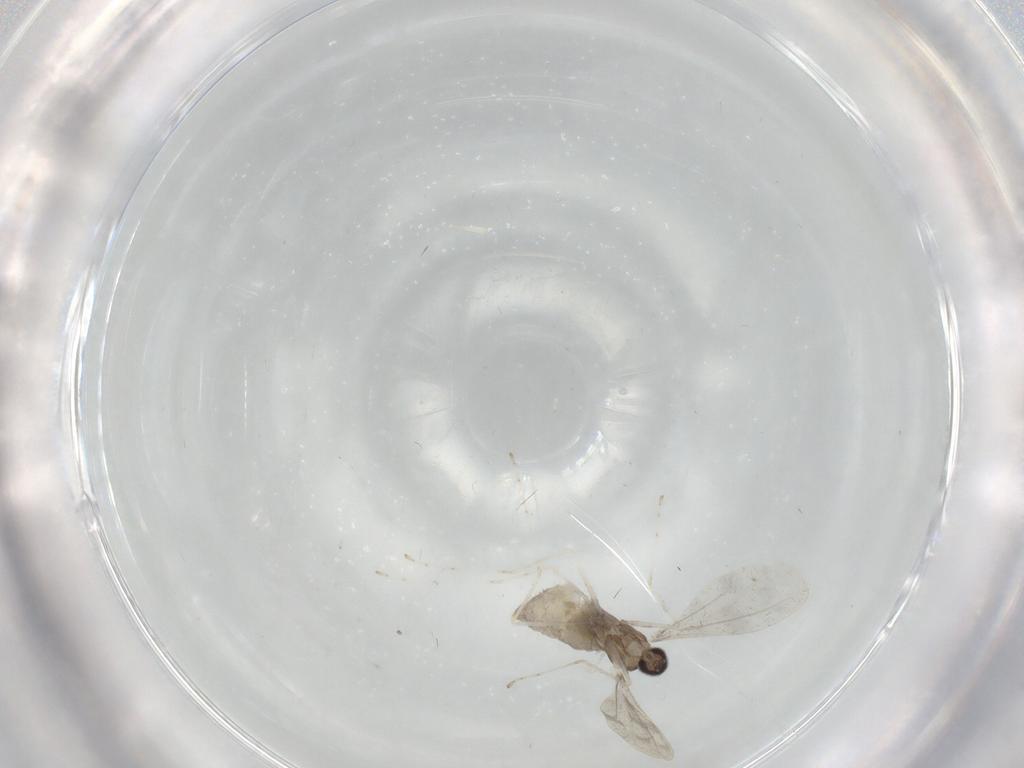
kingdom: Animalia
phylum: Arthropoda
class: Insecta
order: Diptera
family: Cecidomyiidae
